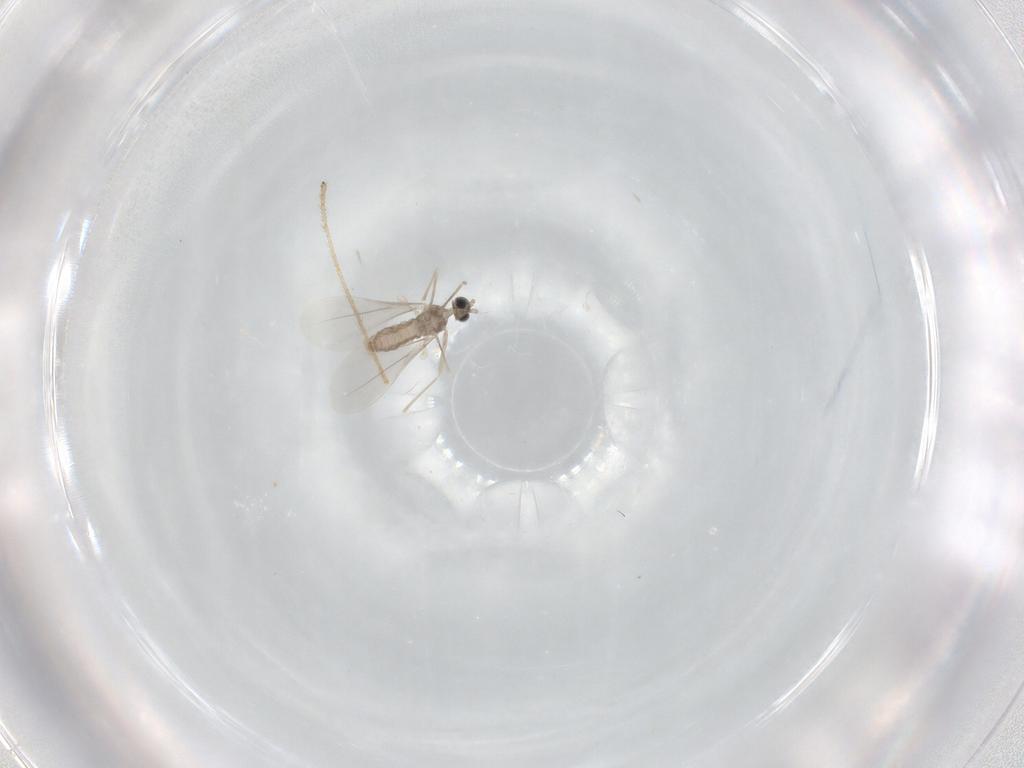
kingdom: Animalia
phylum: Arthropoda
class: Insecta
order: Diptera
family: Cecidomyiidae
